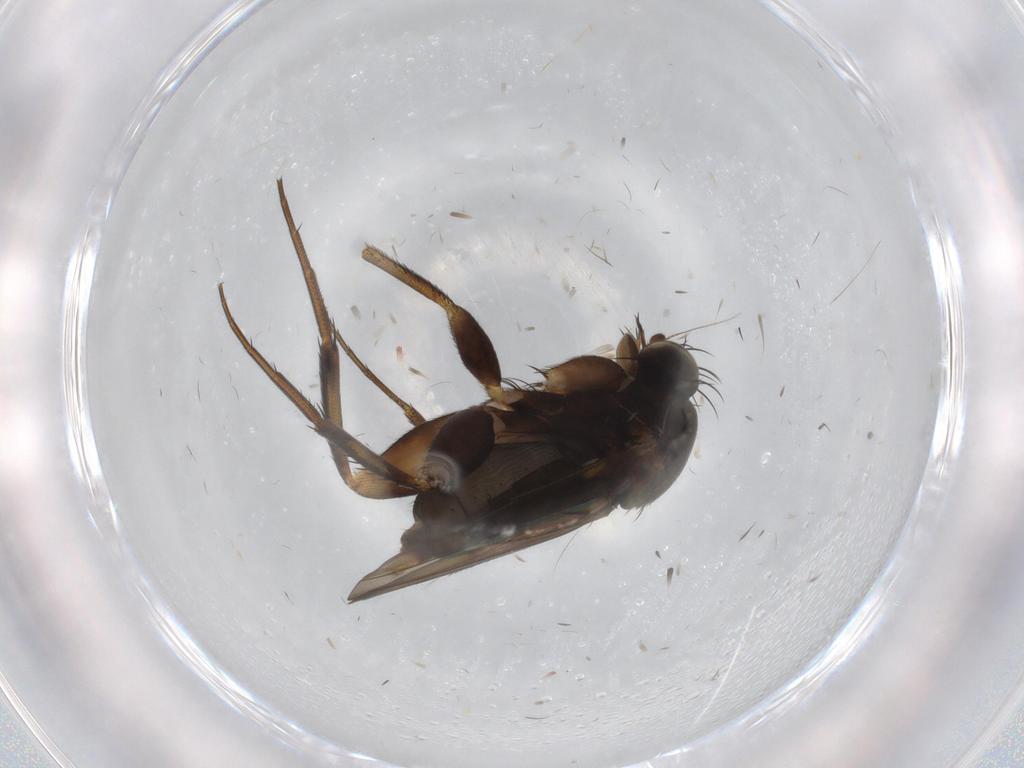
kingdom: Animalia
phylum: Arthropoda
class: Insecta
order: Diptera
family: Phoridae
